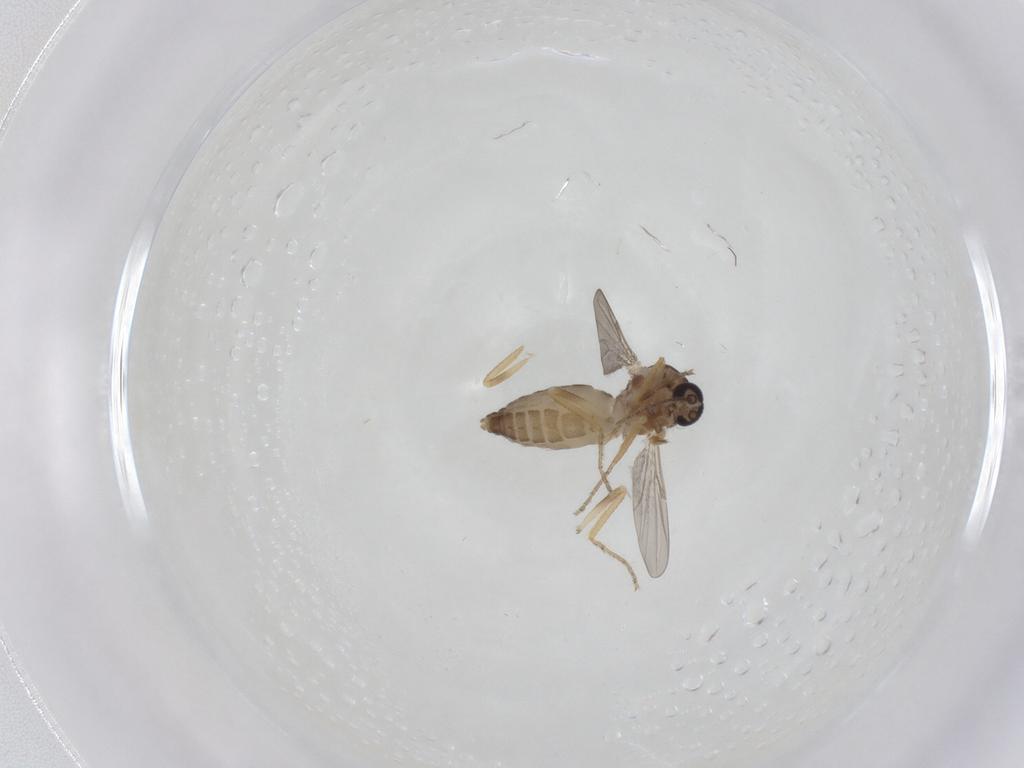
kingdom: Animalia
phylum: Arthropoda
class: Insecta
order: Diptera
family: Ceratopogonidae
